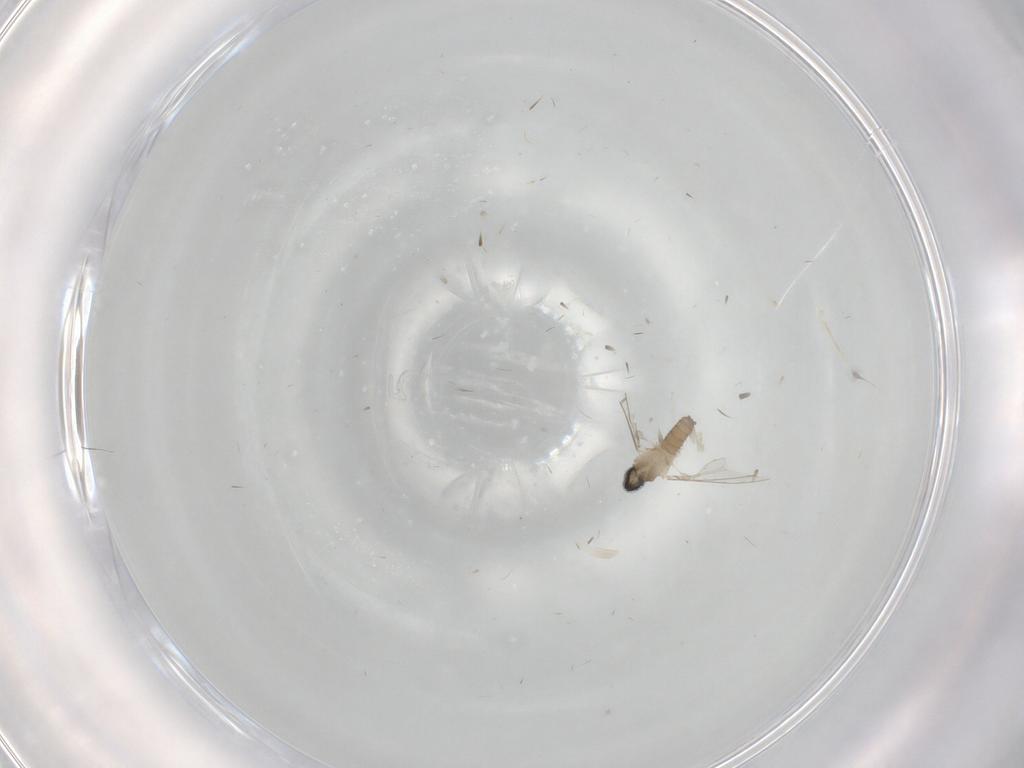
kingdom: Animalia
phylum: Arthropoda
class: Insecta
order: Diptera
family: Cecidomyiidae
